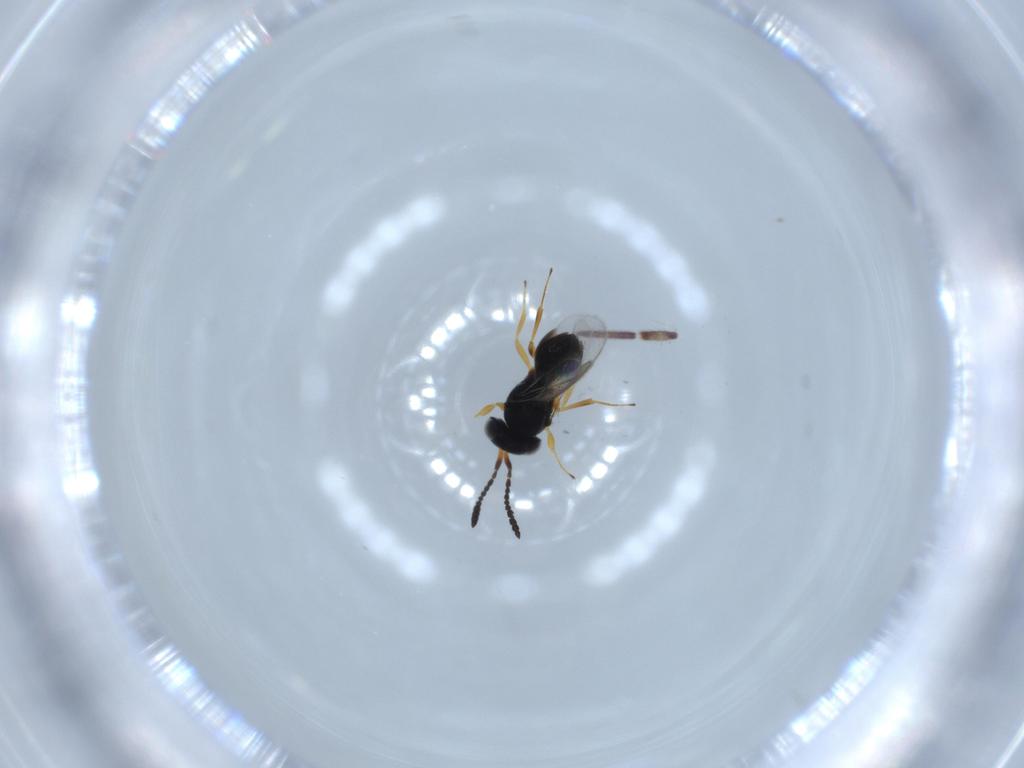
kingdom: Animalia
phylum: Arthropoda
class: Insecta
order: Hymenoptera
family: Scelionidae
